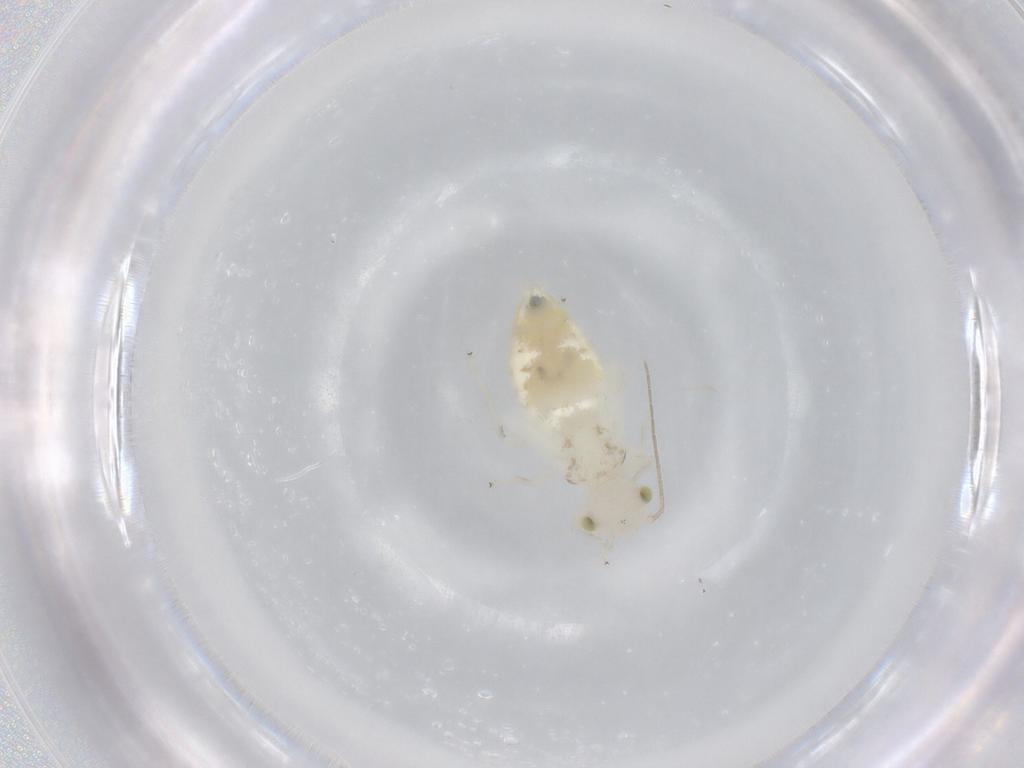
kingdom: Animalia
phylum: Arthropoda
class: Insecta
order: Psocodea
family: Stenopsocidae
